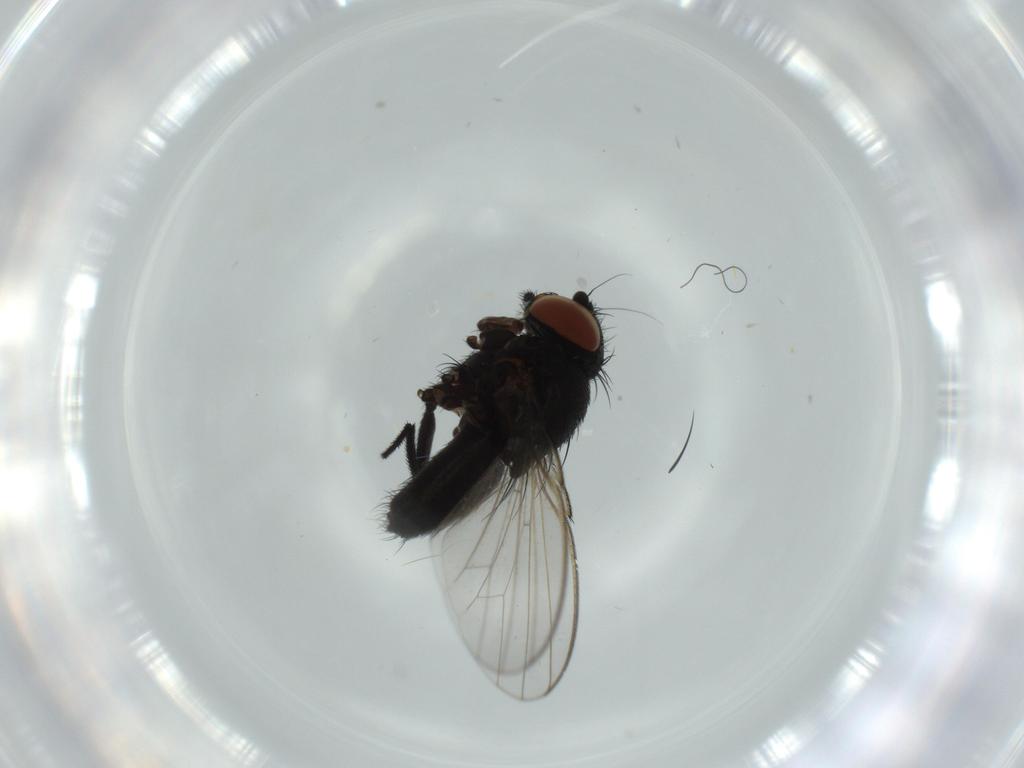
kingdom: Animalia
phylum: Arthropoda
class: Insecta
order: Diptera
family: Milichiidae
